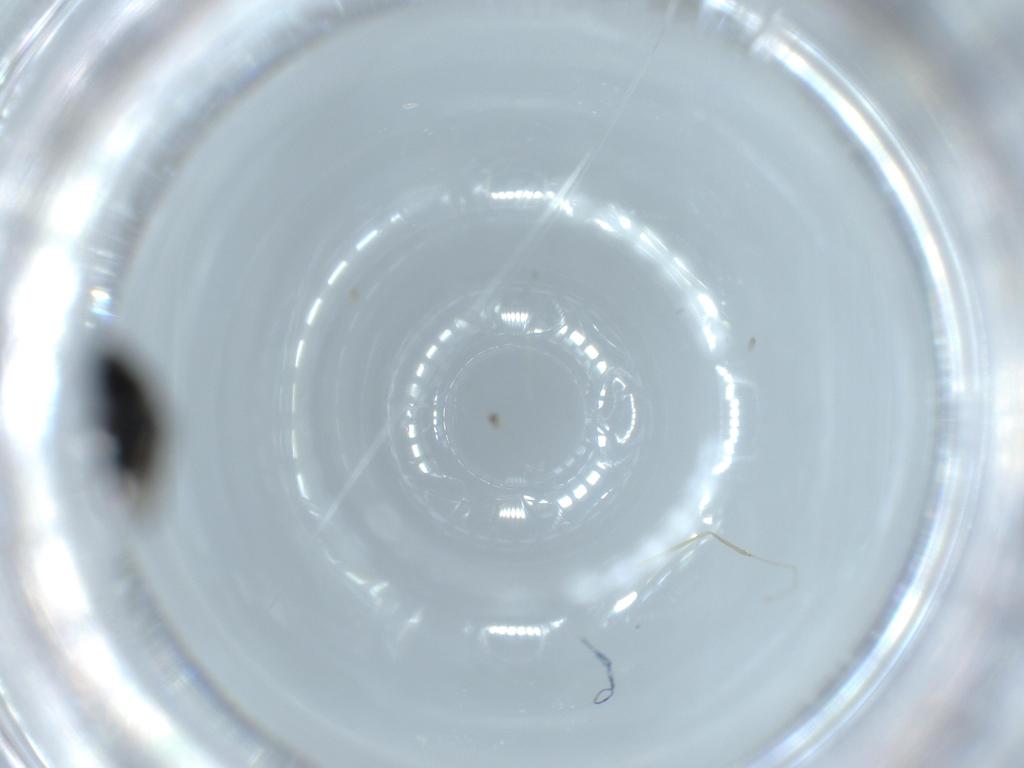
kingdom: Animalia
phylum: Arthropoda
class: Insecta
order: Diptera
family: Phoridae
